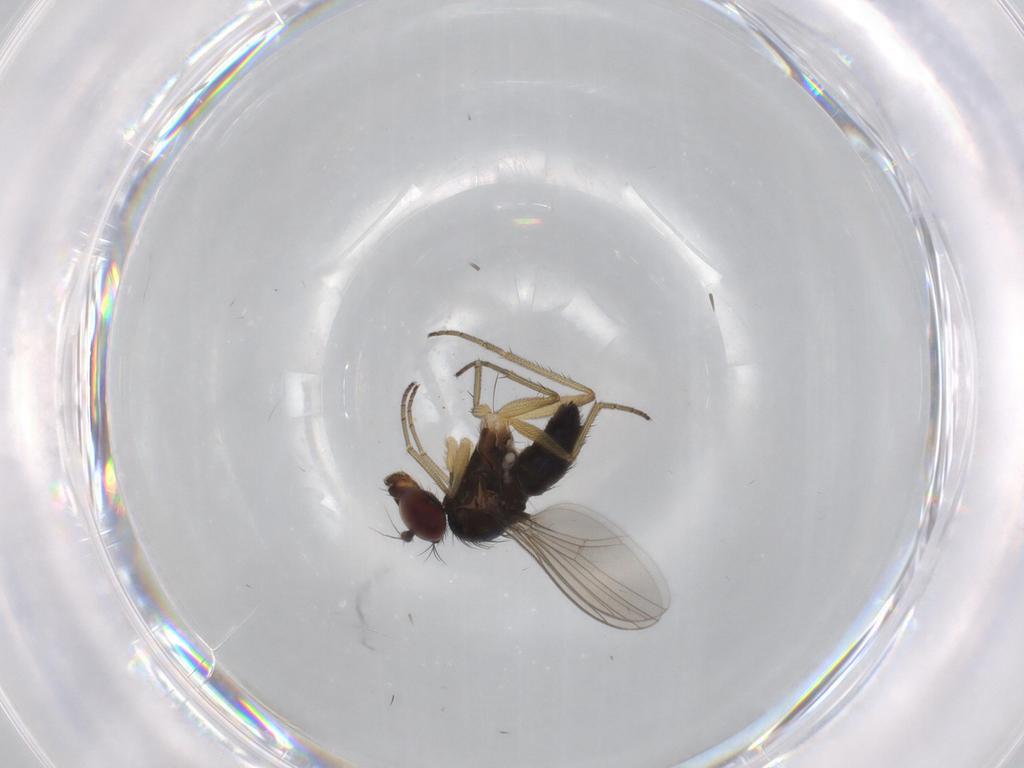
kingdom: Animalia
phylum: Arthropoda
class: Insecta
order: Diptera
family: Dolichopodidae
